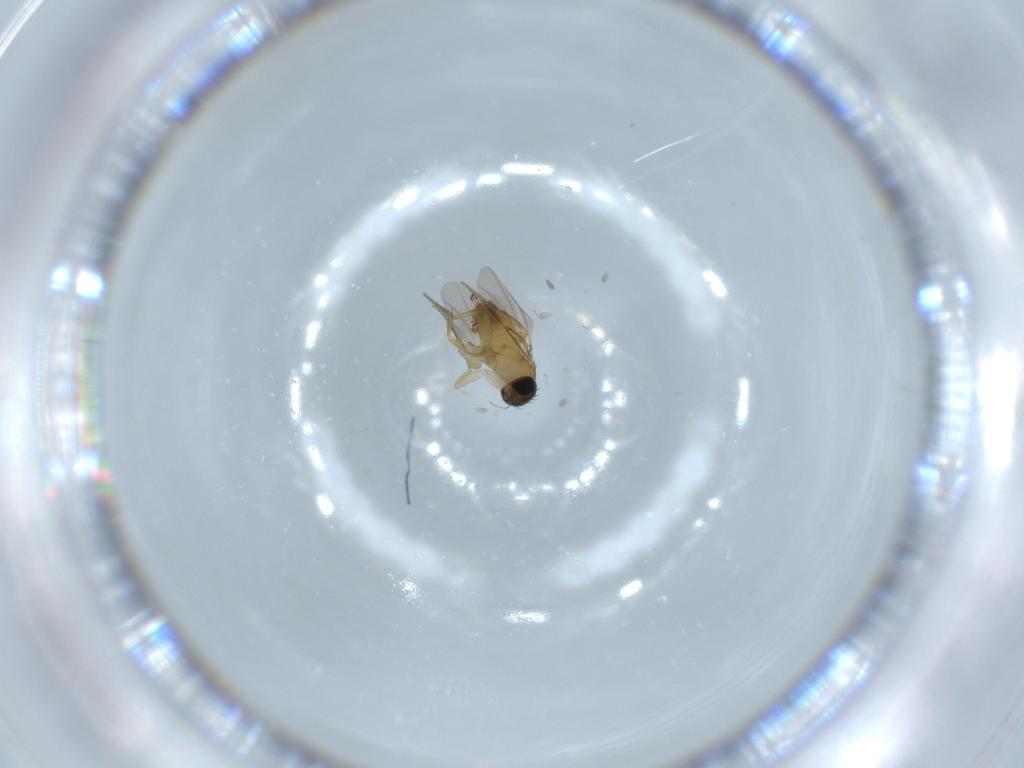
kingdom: Animalia
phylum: Arthropoda
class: Insecta
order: Diptera
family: Phoridae
